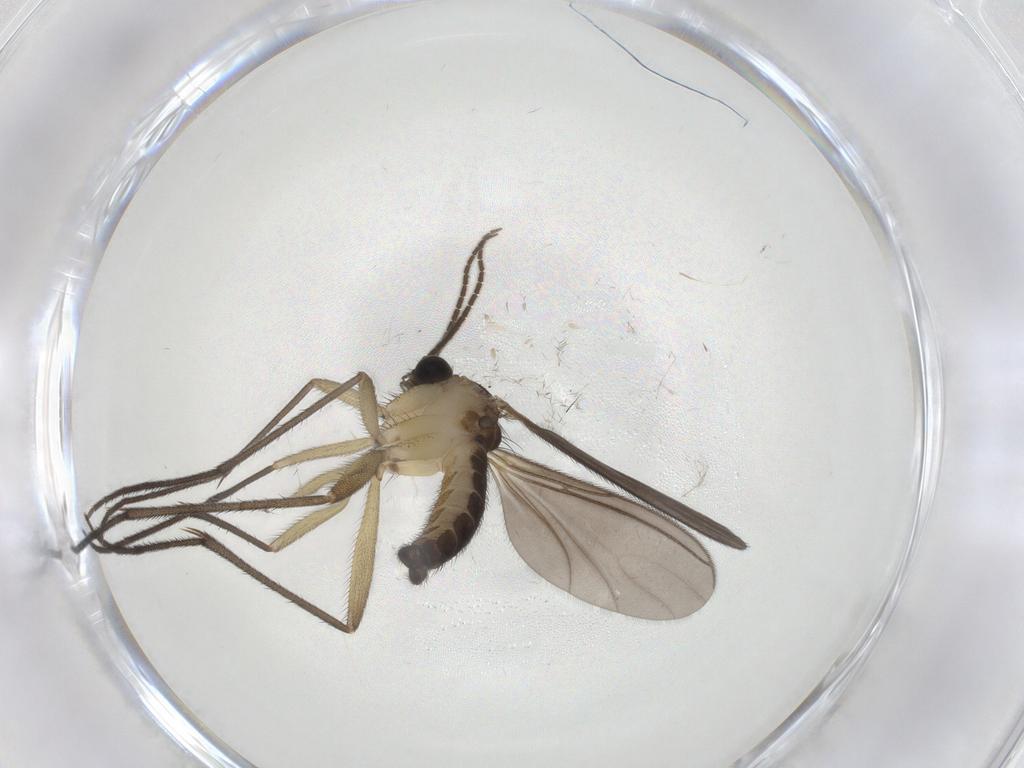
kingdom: Animalia
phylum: Arthropoda
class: Insecta
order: Diptera
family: Sciaridae
